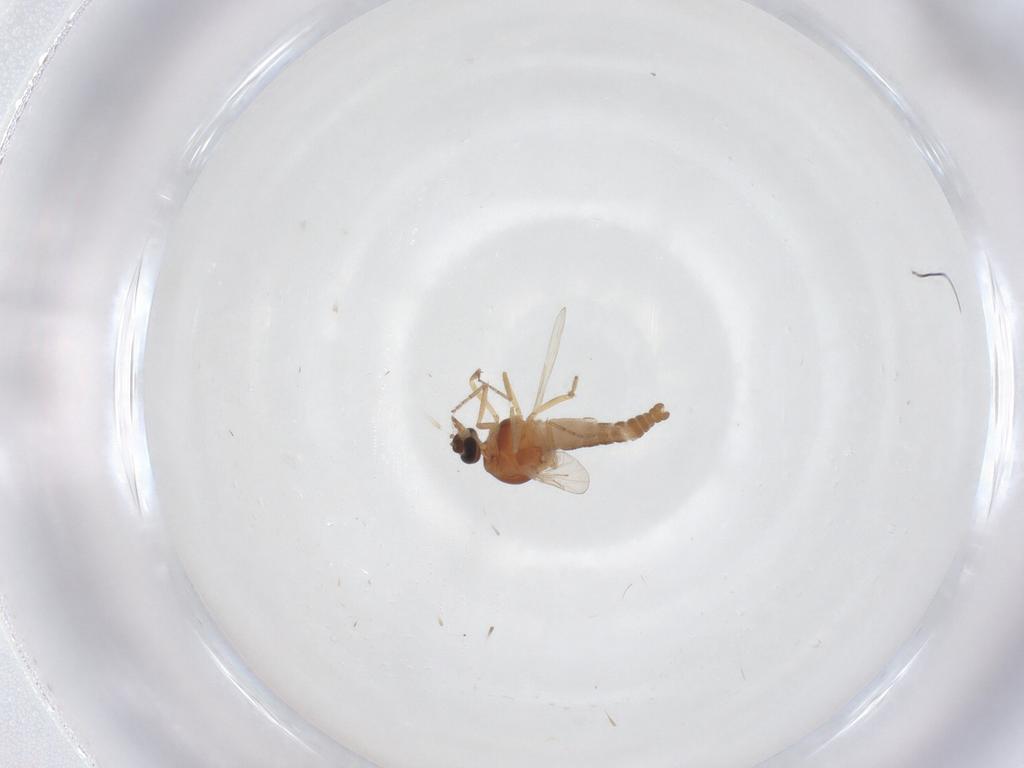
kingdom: Animalia
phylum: Arthropoda
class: Insecta
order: Diptera
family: Ceratopogonidae
